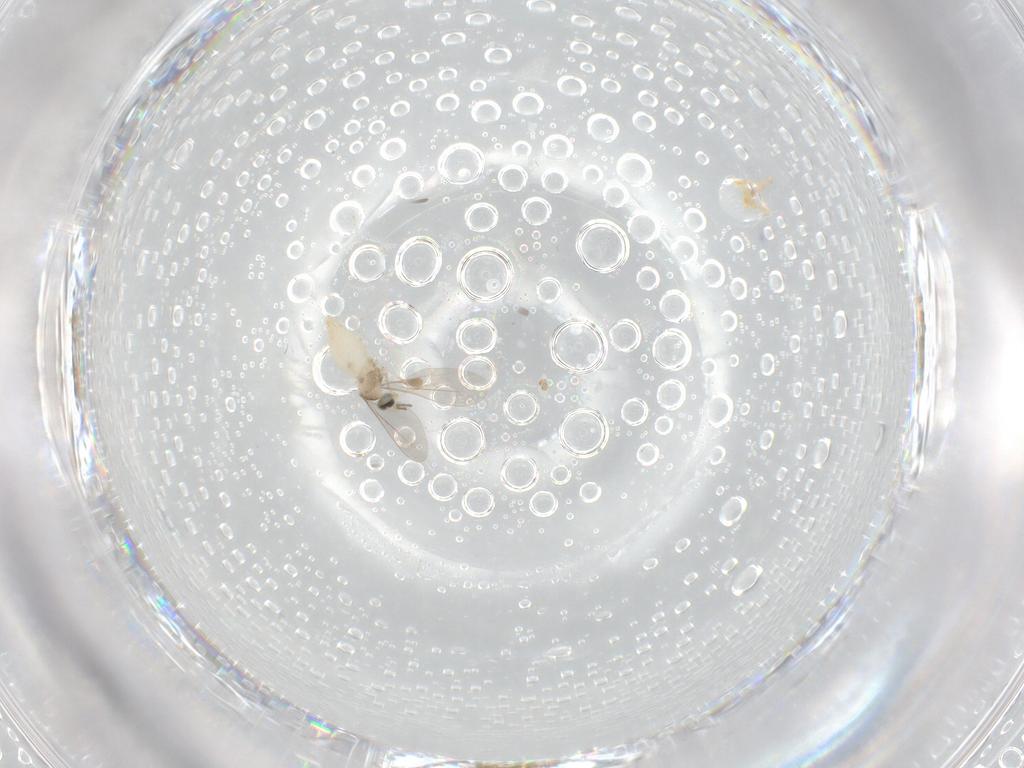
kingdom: Animalia
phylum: Arthropoda
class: Insecta
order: Diptera
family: Cecidomyiidae
